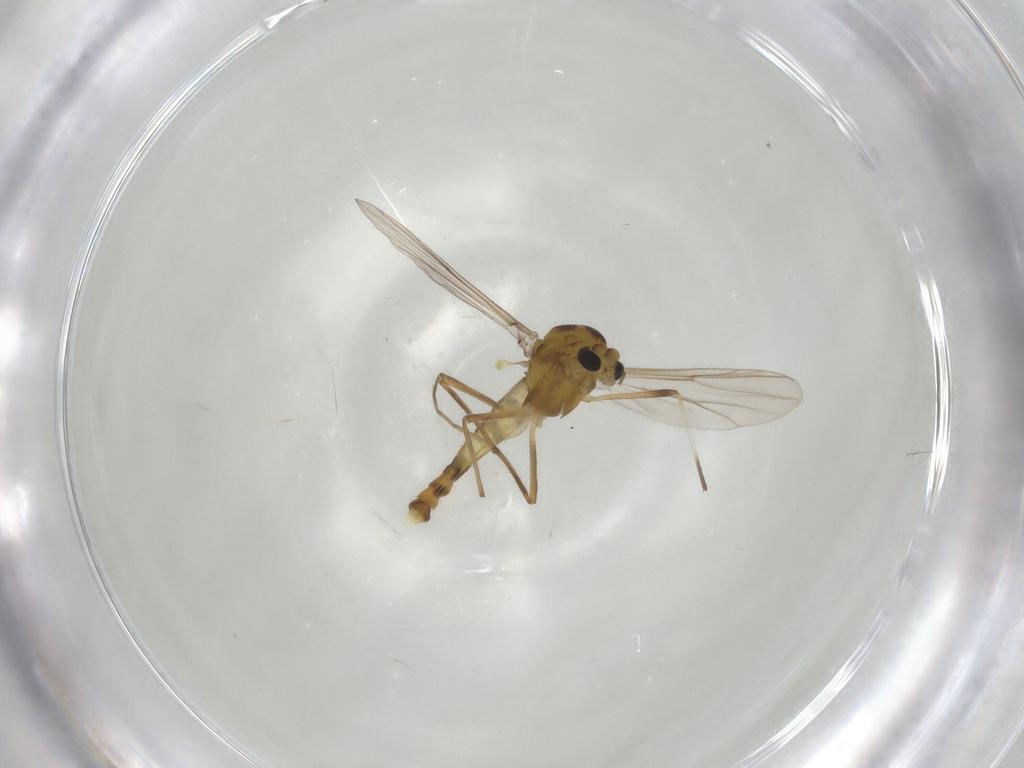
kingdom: Animalia
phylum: Arthropoda
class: Insecta
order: Diptera
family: Chironomidae
